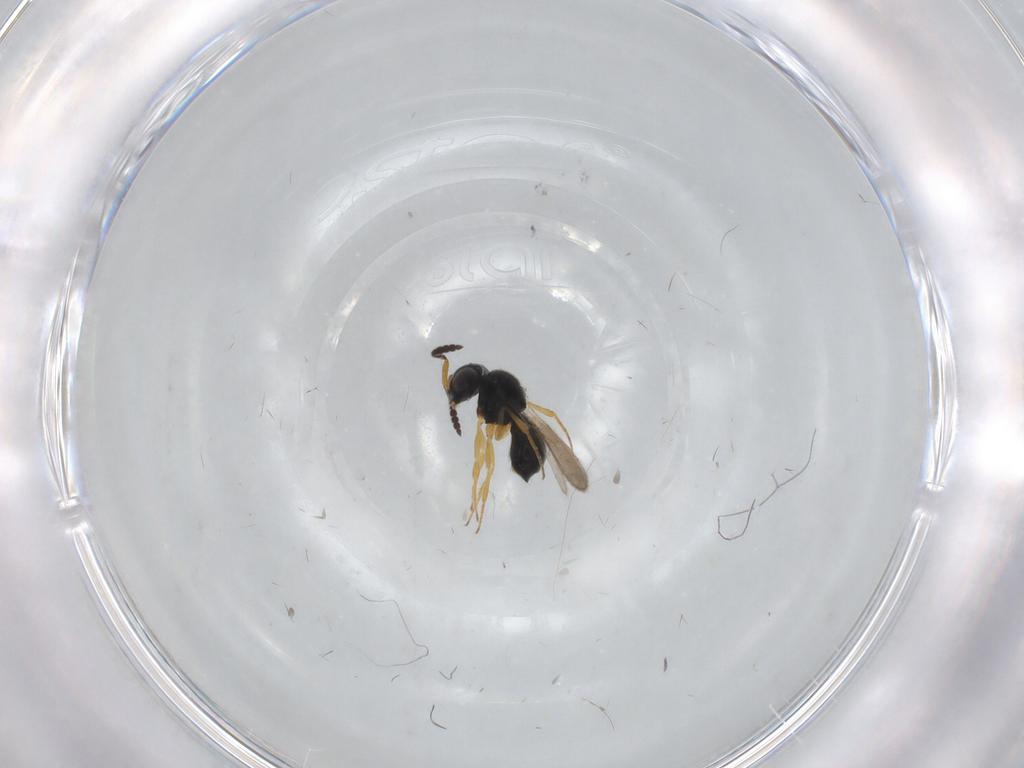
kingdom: Animalia
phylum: Arthropoda
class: Insecta
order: Hymenoptera
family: Scelionidae
